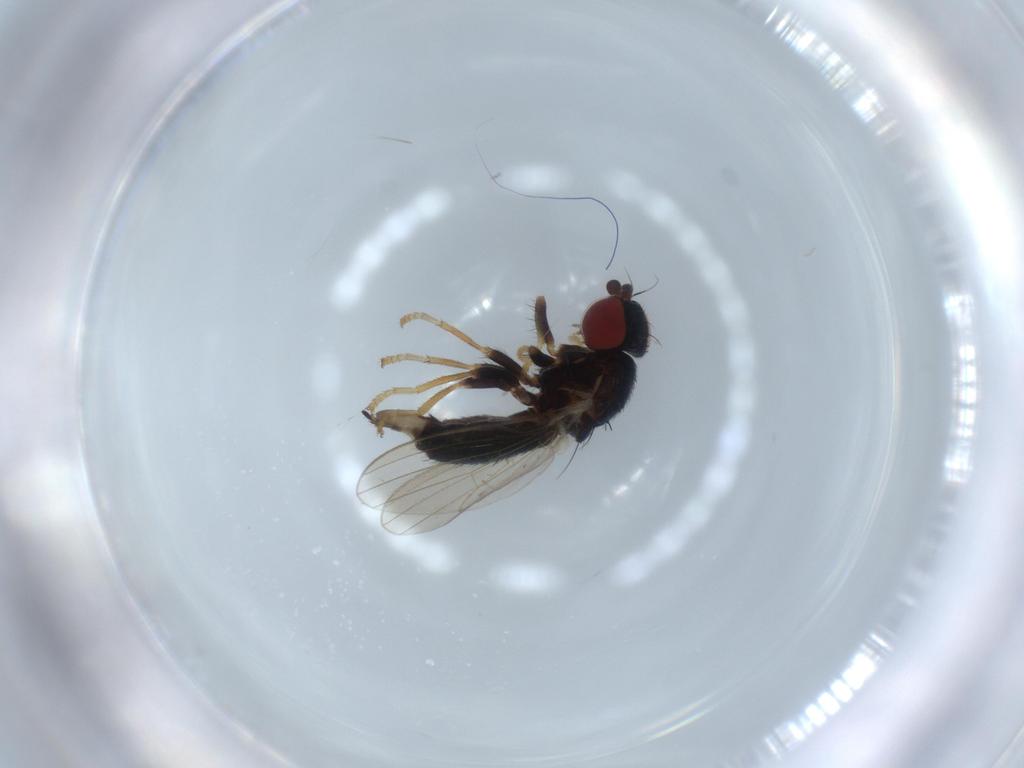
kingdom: Animalia
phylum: Arthropoda
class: Insecta
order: Diptera
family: Chamaemyiidae
